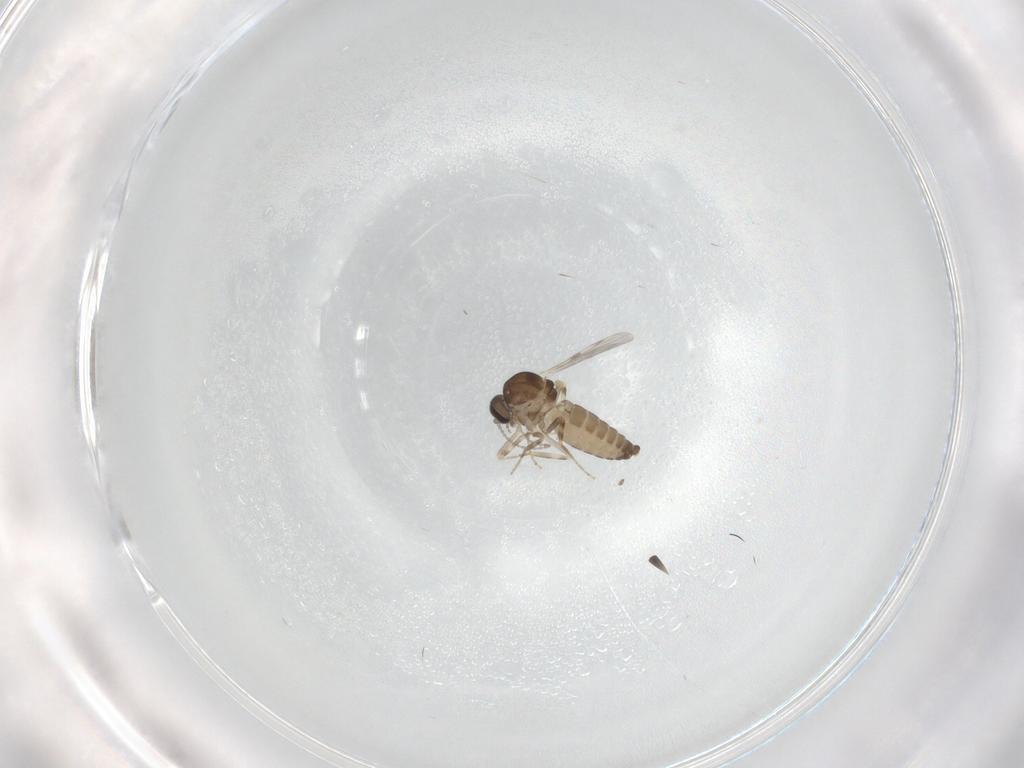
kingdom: Animalia
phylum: Arthropoda
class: Insecta
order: Diptera
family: Ceratopogonidae
